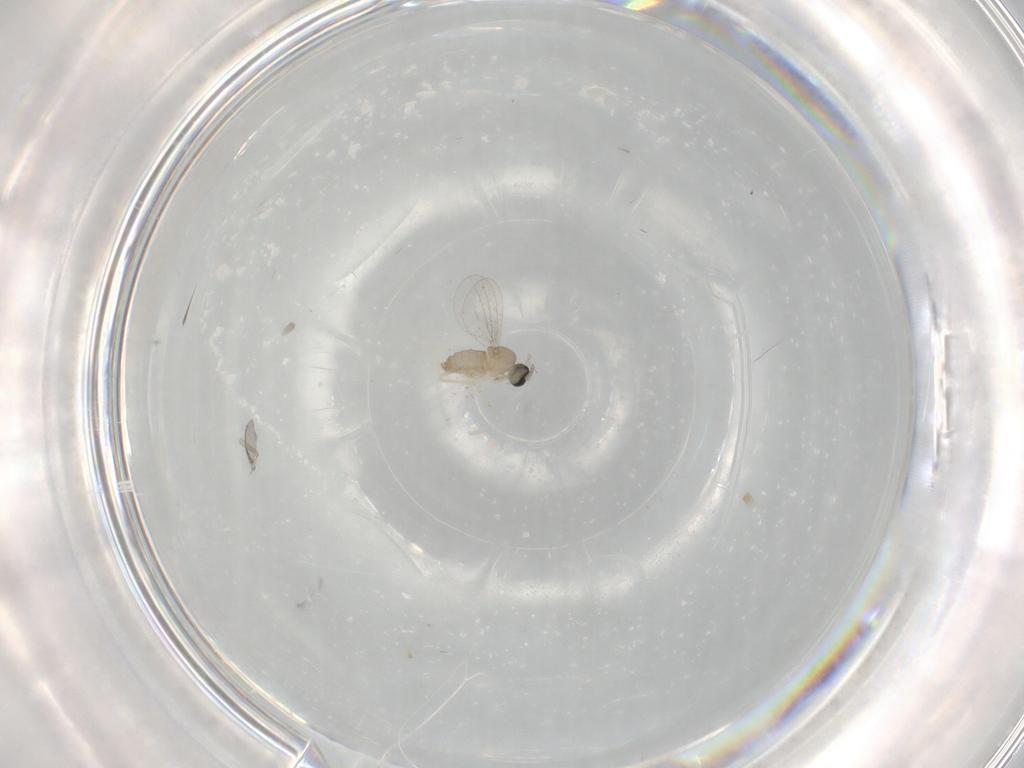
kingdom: Animalia
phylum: Arthropoda
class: Insecta
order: Diptera
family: Cecidomyiidae
